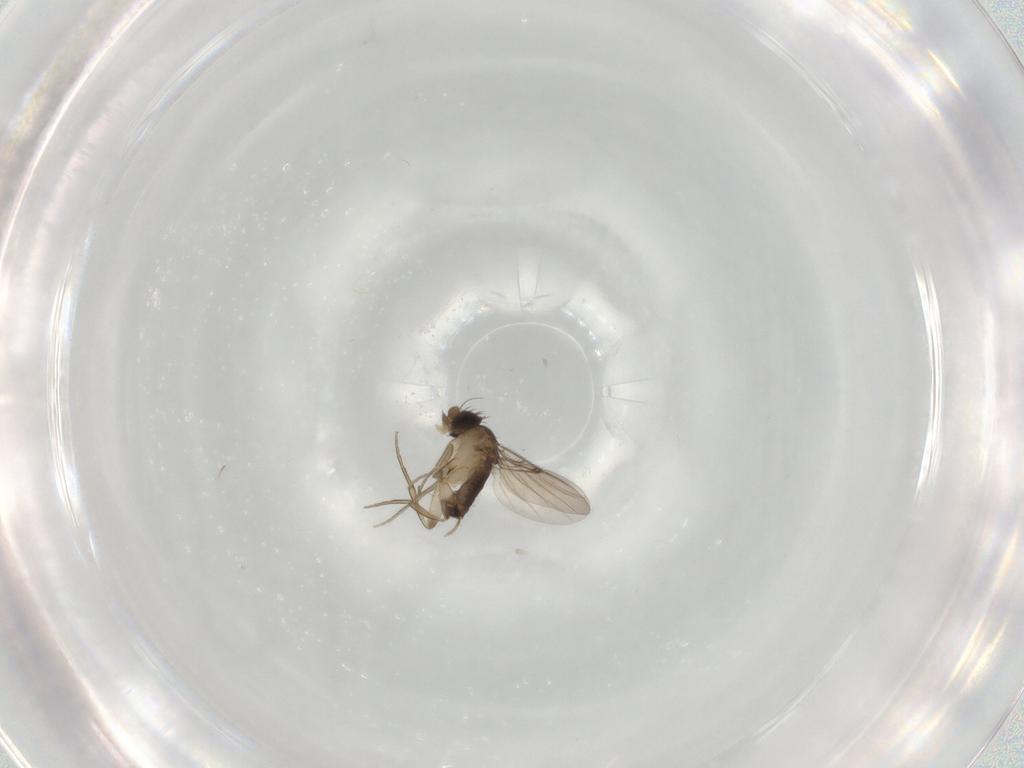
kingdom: Animalia
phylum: Arthropoda
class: Insecta
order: Diptera
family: Phoridae
